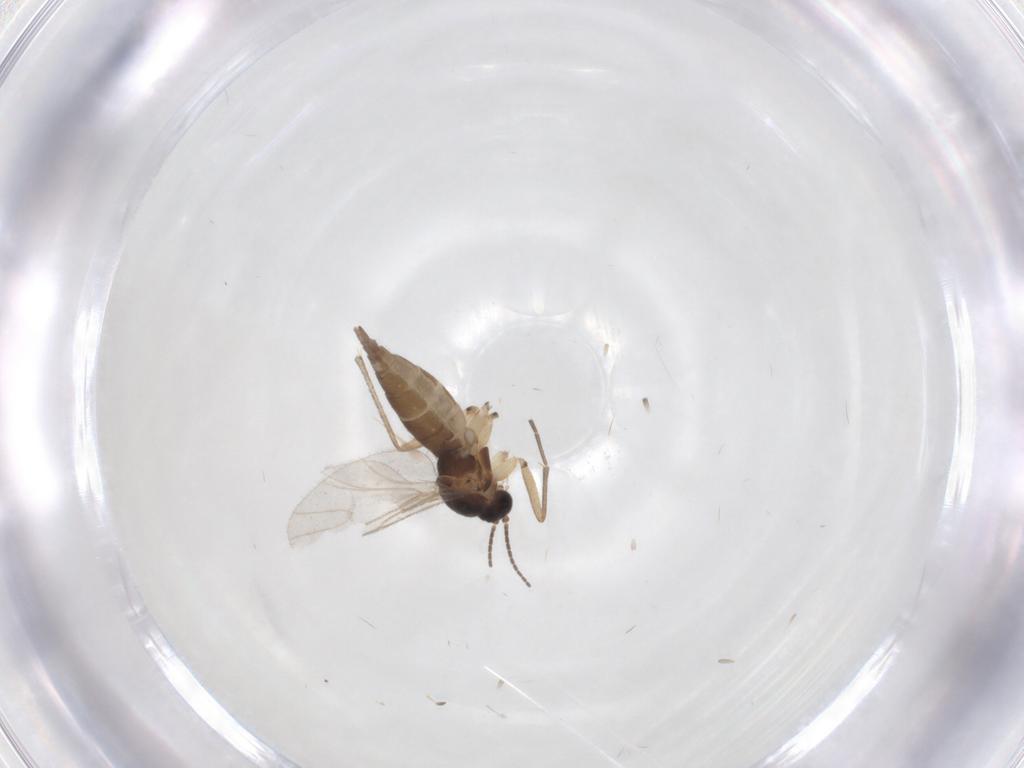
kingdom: Animalia
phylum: Arthropoda
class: Insecta
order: Diptera
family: Sciaridae
